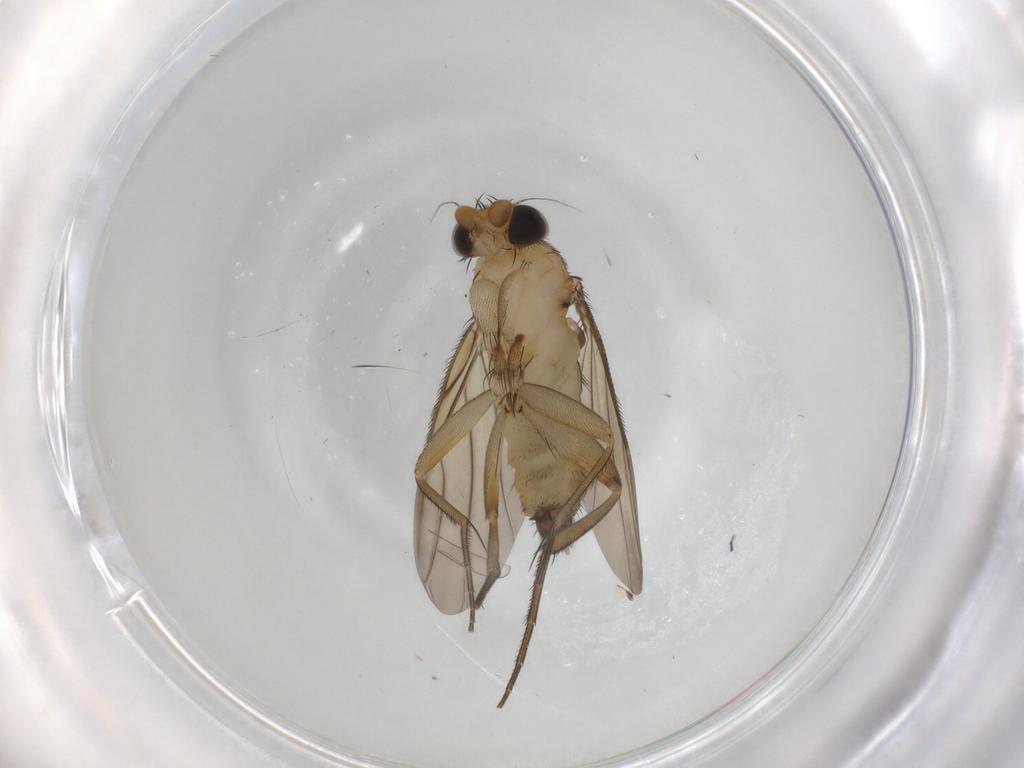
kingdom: Animalia
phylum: Arthropoda
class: Insecta
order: Diptera
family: Phoridae
